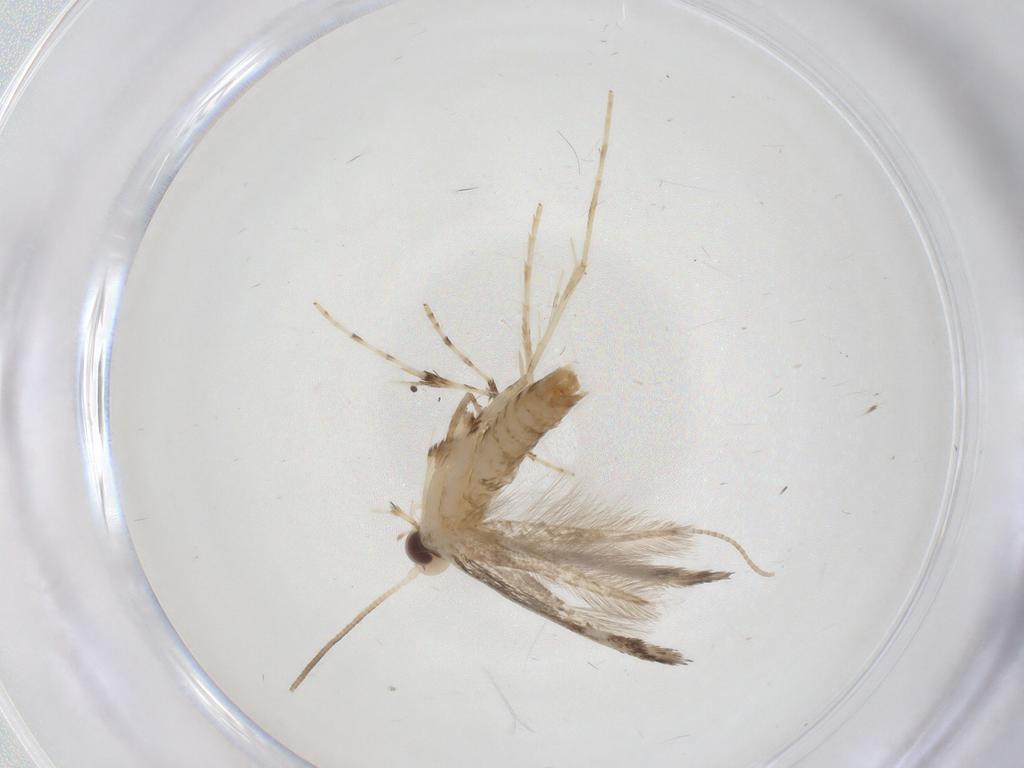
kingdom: Animalia
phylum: Arthropoda
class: Insecta
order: Lepidoptera
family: Gracillariidae
